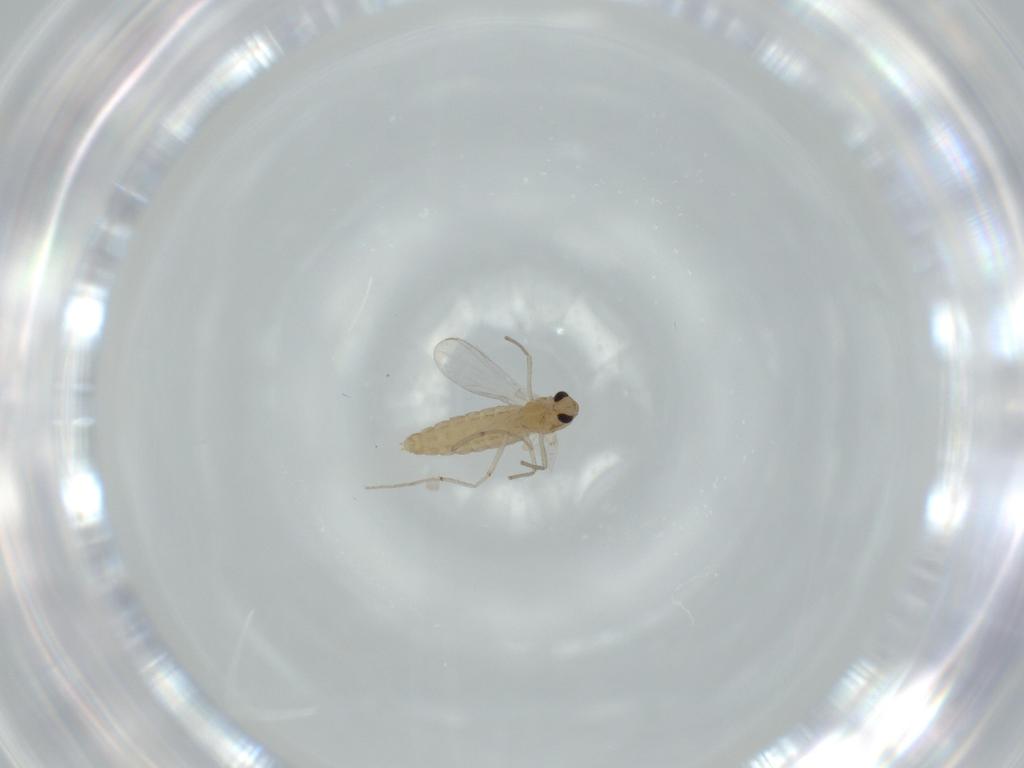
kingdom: Animalia
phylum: Arthropoda
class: Insecta
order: Diptera
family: Chironomidae
